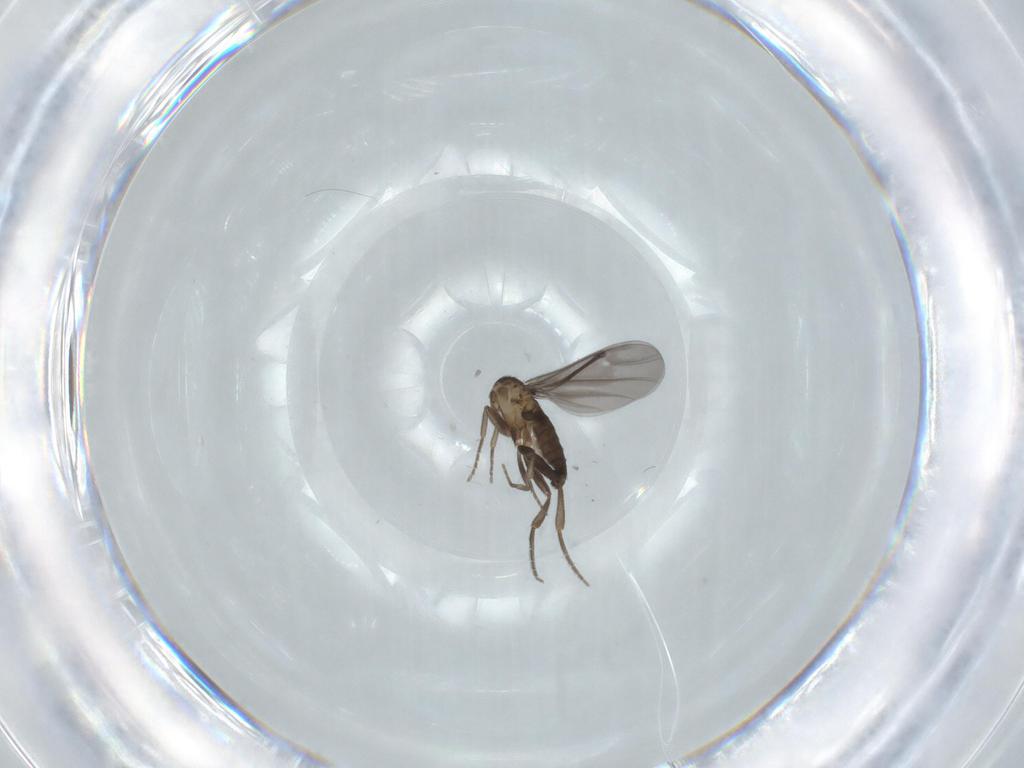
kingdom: Animalia
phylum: Arthropoda
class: Insecta
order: Diptera
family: Phoridae
